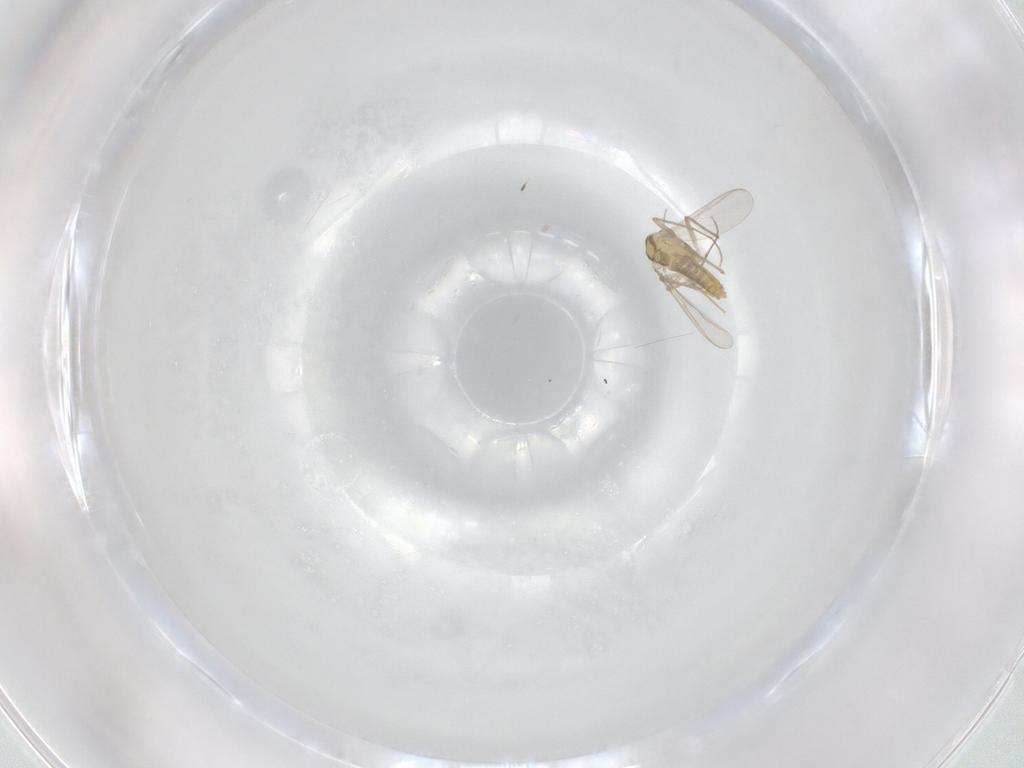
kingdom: Animalia
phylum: Arthropoda
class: Insecta
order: Diptera
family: Chironomidae
